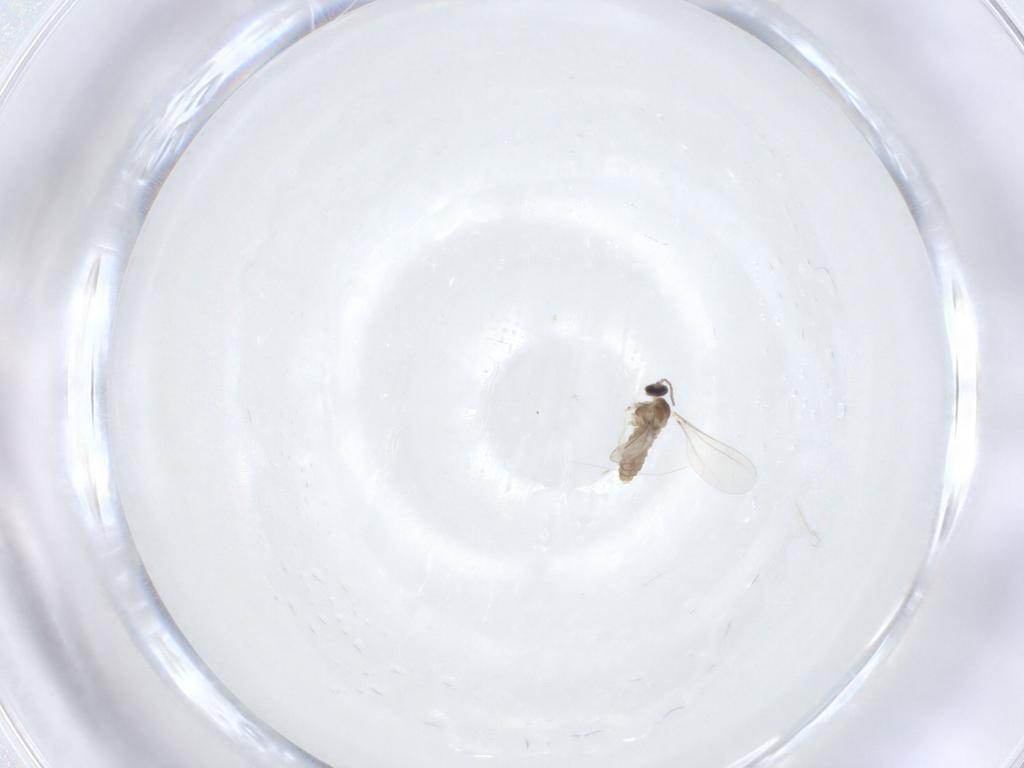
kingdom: Animalia
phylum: Arthropoda
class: Insecta
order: Diptera
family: Cecidomyiidae
